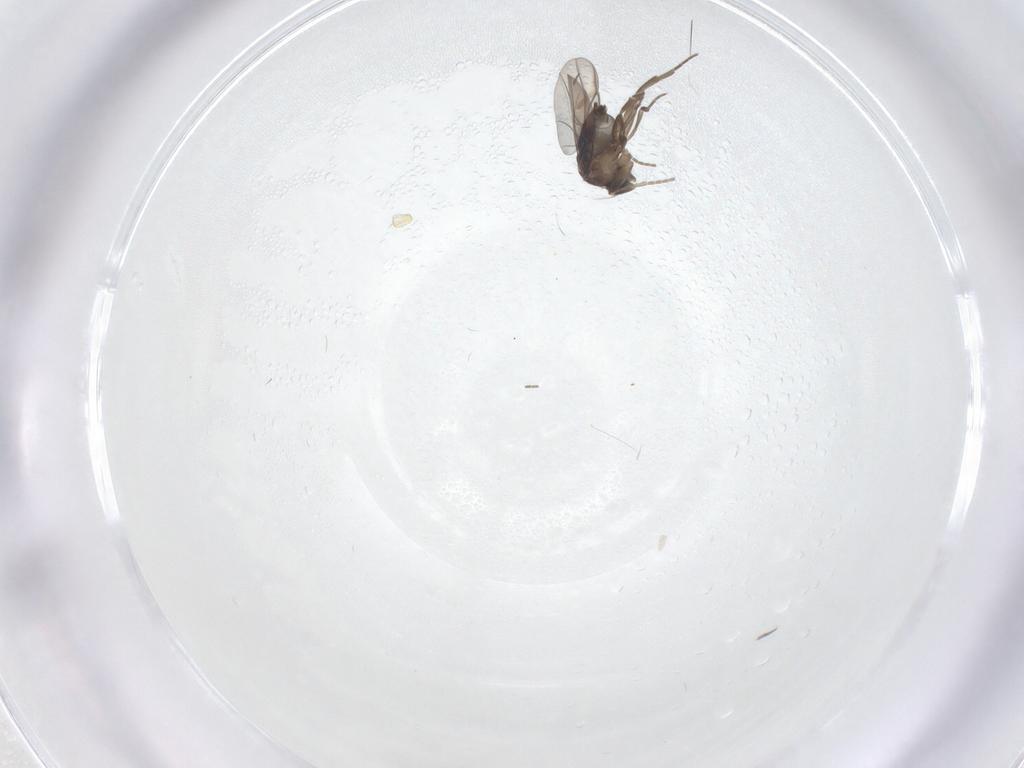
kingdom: Animalia
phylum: Arthropoda
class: Insecta
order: Diptera
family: Phoridae
